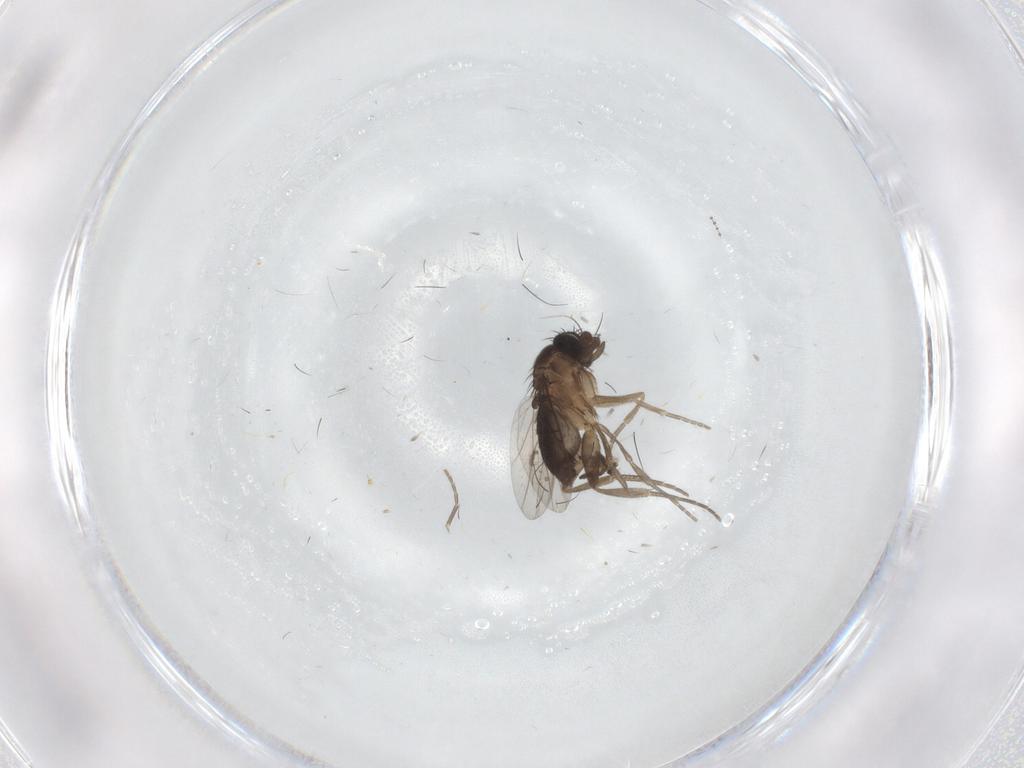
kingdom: Animalia
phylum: Arthropoda
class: Insecta
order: Diptera
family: Phoridae
